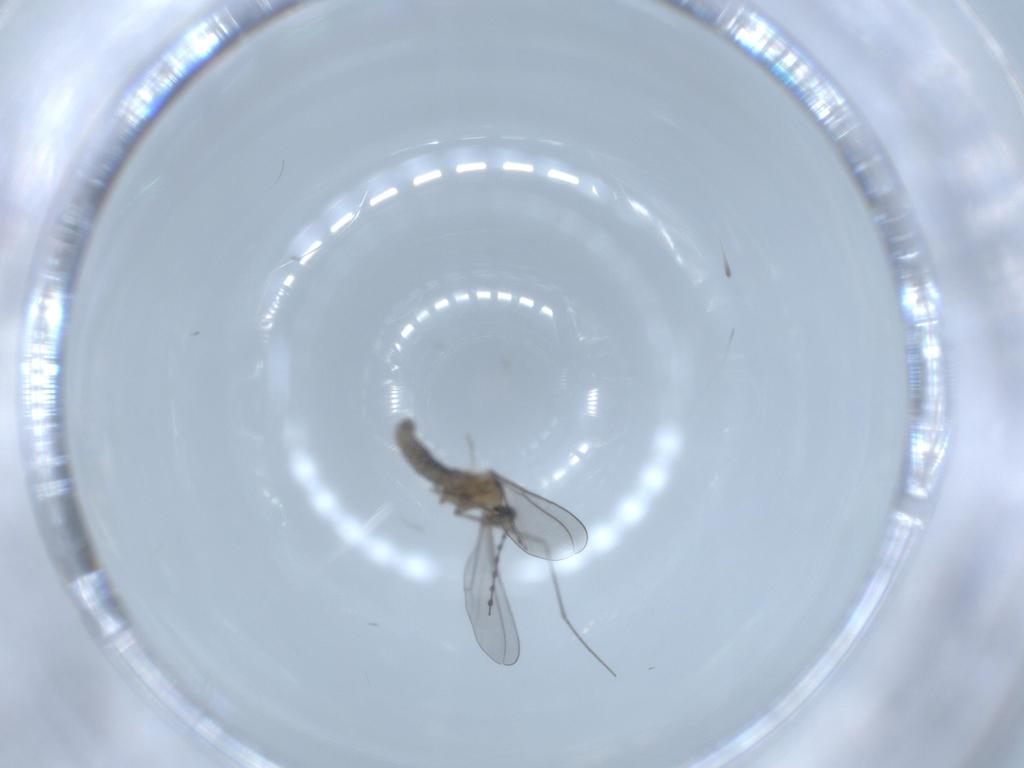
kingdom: Animalia
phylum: Arthropoda
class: Insecta
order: Diptera
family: Cecidomyiidae
